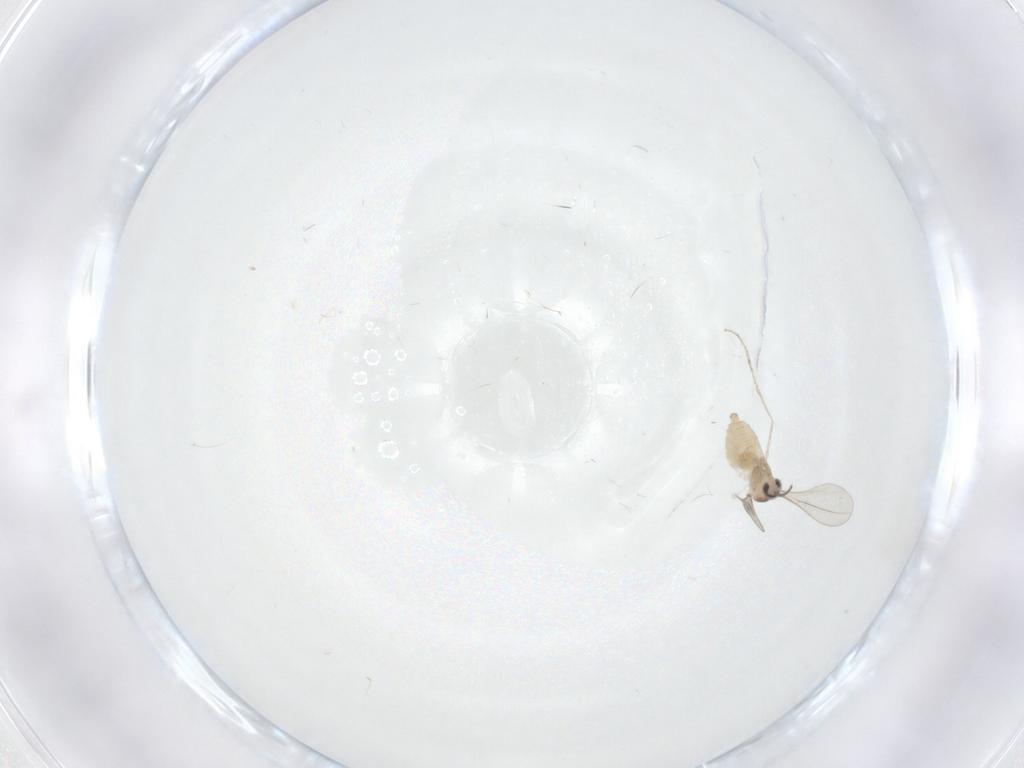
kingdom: Animalia
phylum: Arthropoda
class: Insecta
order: Diptera
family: Cecidomyiidae
